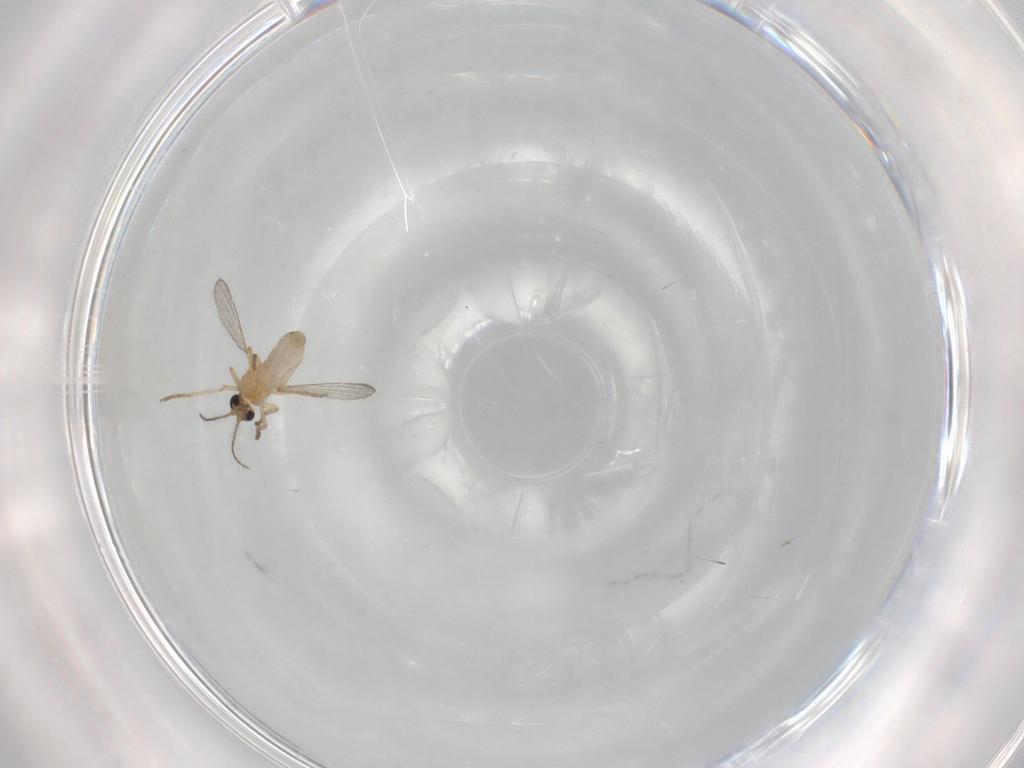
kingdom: Animalia
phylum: Arthropoda
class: Insecta
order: Diptera
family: Ceratopogonidae
